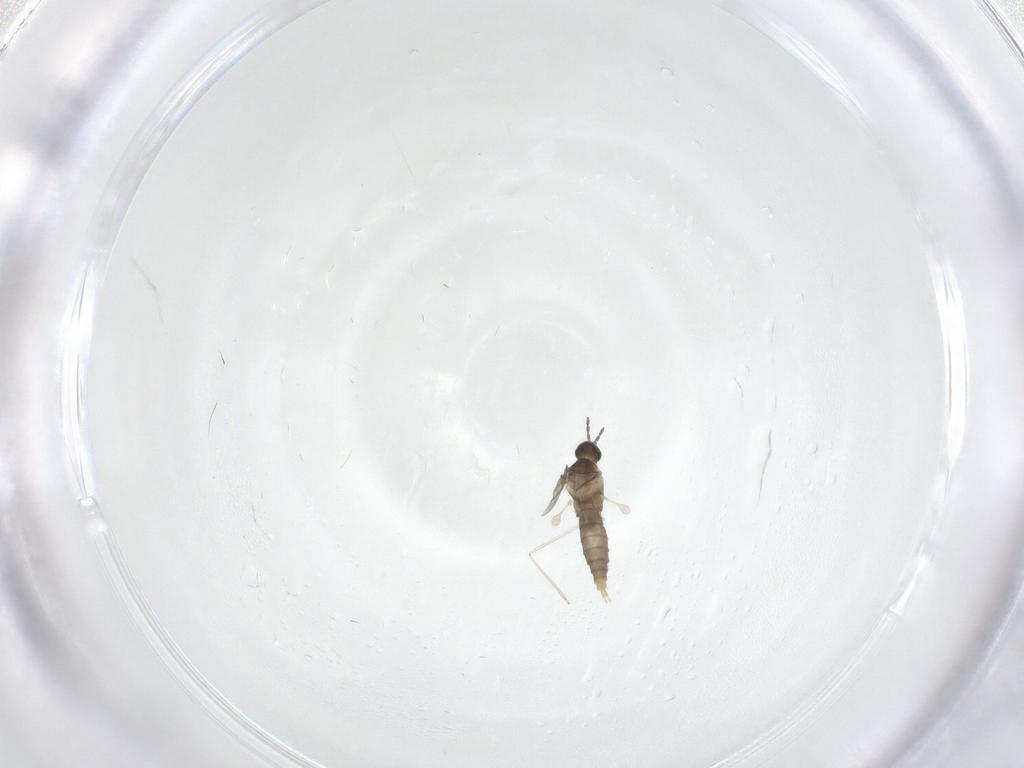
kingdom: Animalia
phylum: Arthropoda
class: Insecta
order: Diptera
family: Cecidomyiidae
